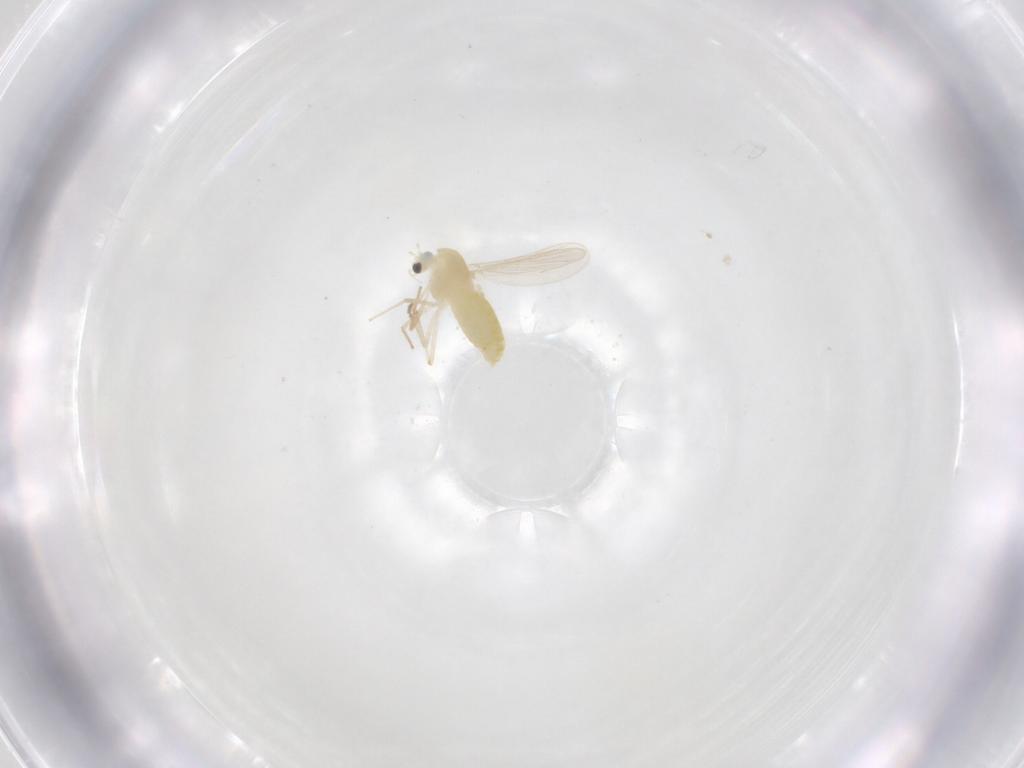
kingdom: Animalia
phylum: Arthropoda
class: Insecta
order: Diptera
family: Chironomidae
